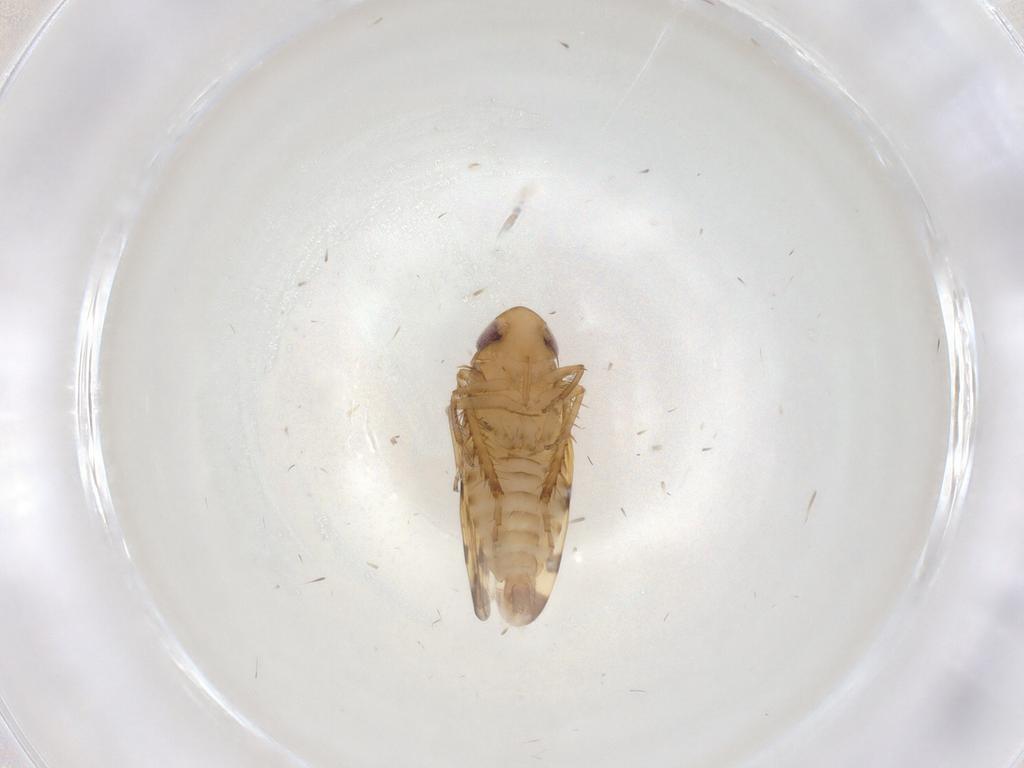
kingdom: Animalia
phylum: Arthropoda
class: Insecta
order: Hemiptera
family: Cicadellidae
